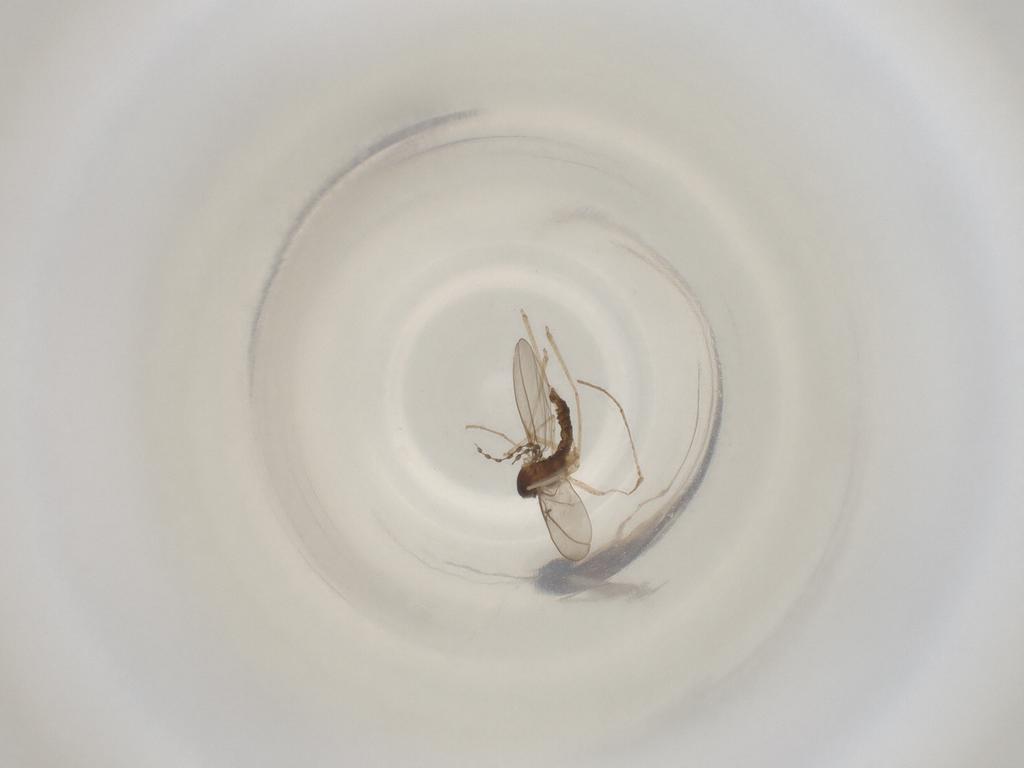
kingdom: Animalia
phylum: Arthropoda
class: Insecta
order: Diptera
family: Cecidomyiidae
